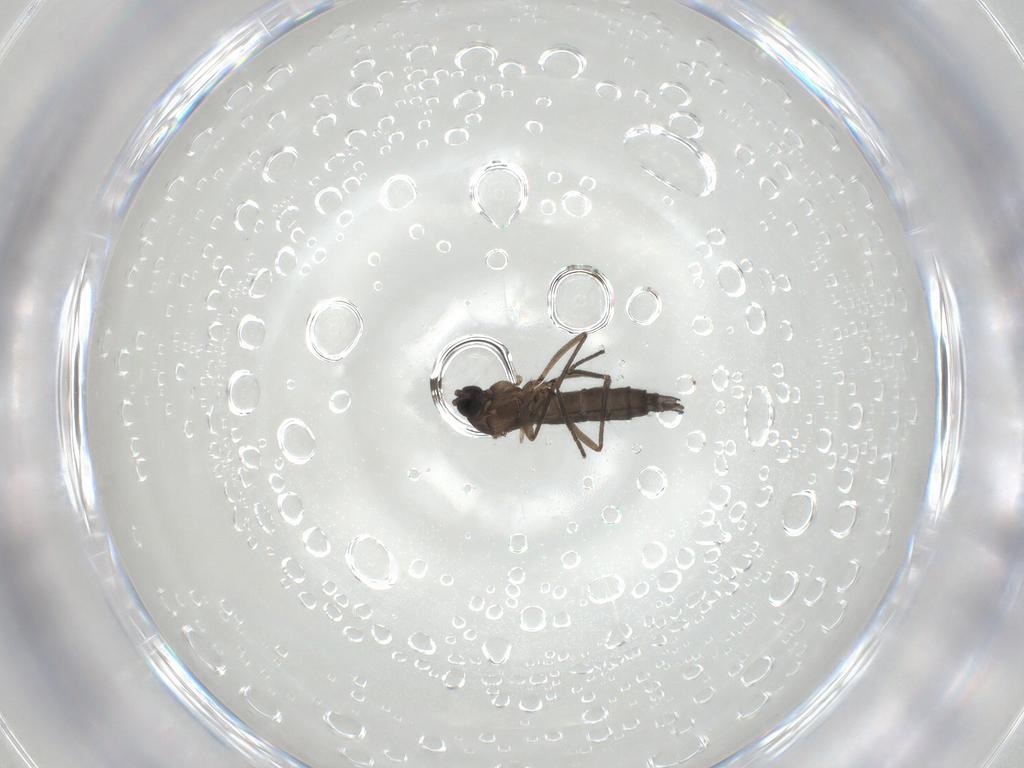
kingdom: Animalia
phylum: Arthropoda
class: Insecta
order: Diptera
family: Sciaridae
